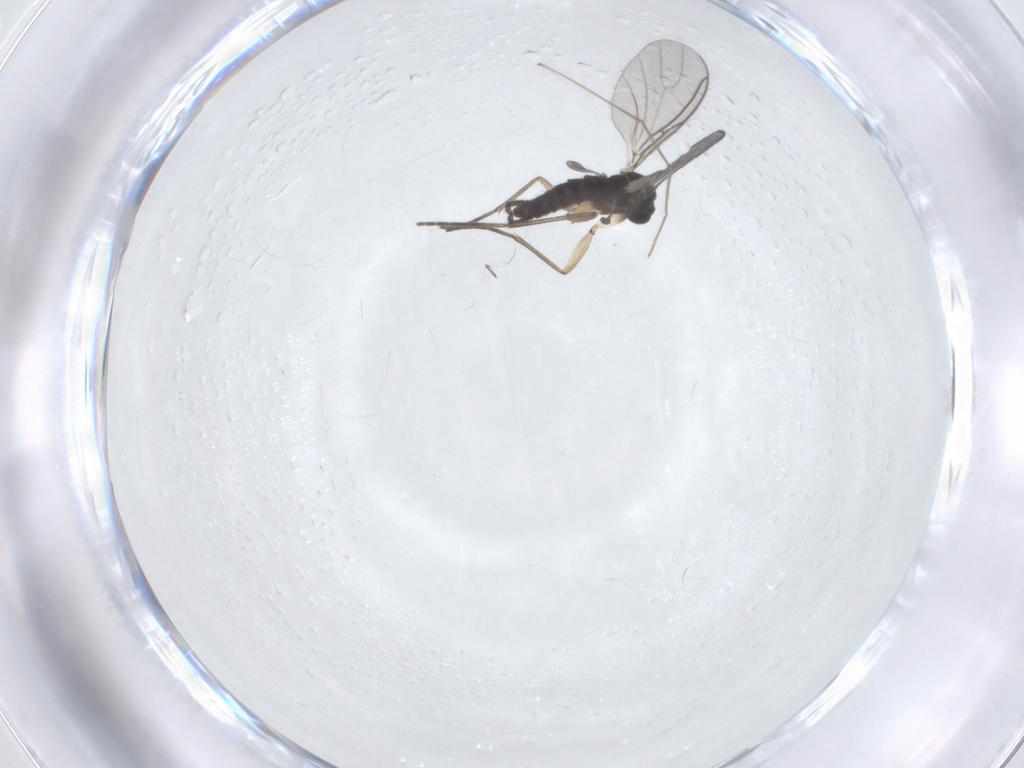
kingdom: Animalia
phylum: Arthropoda
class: Insecta
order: Diptera
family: Sciaridae
